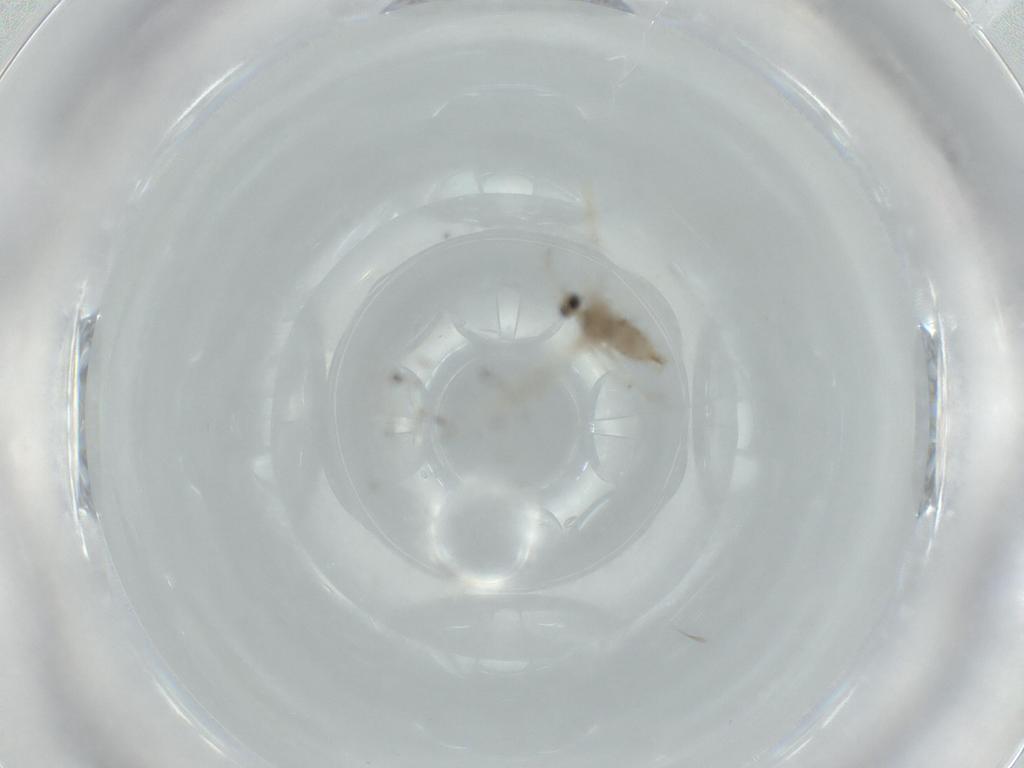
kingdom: Animalia
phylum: Arthropoda
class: Insecta
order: Diptera
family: Cecidomyiidae
